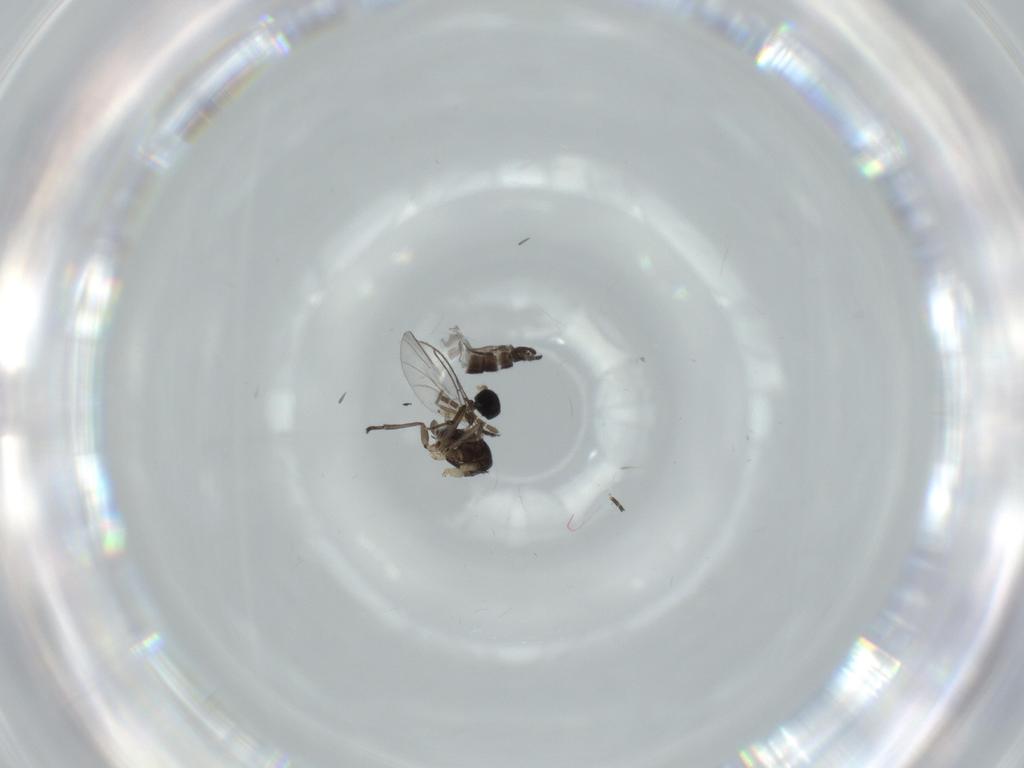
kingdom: Animalia
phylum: Arthropoda
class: Insecta
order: Diptera
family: Sciaridae
